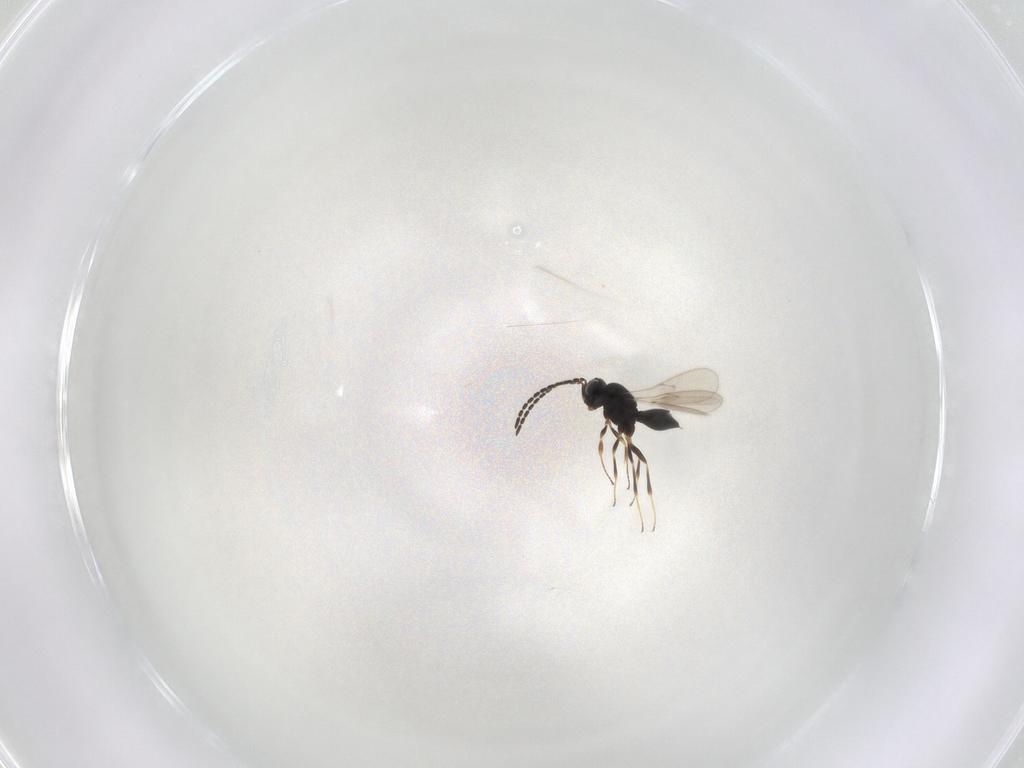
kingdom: Animalia
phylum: Arthropoda
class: Insecta
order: Hymenoptera
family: Scelionidae
